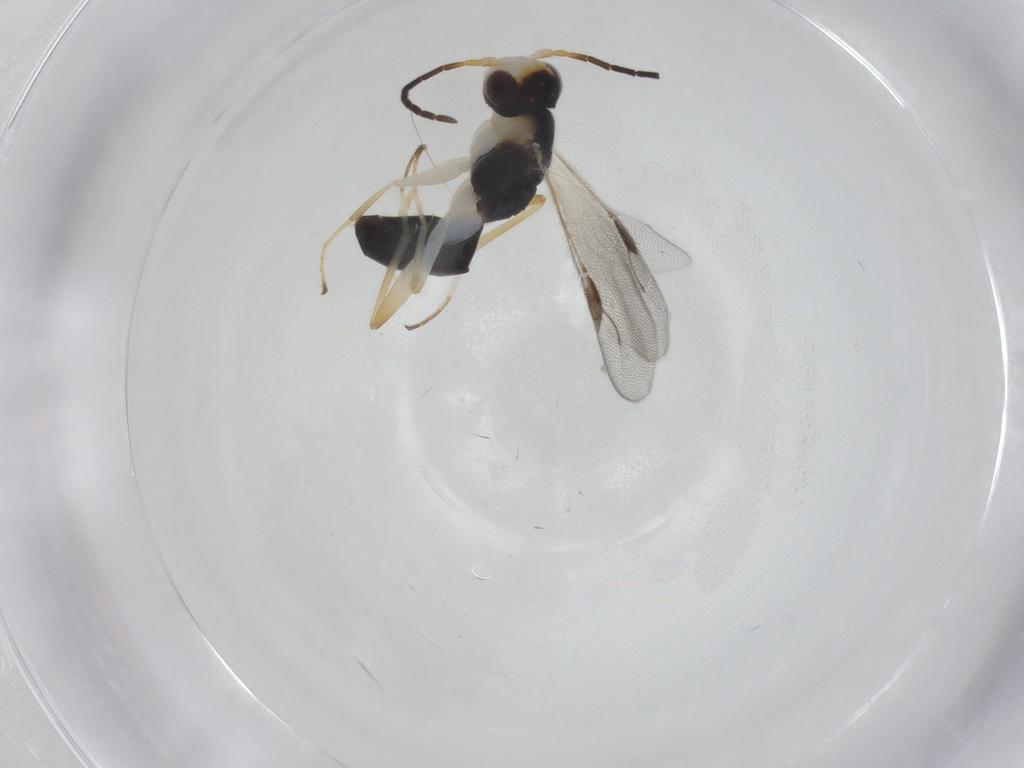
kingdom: Animalia
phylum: Arthropoda
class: Insecta
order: Hymenoptera
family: Dryinidae
